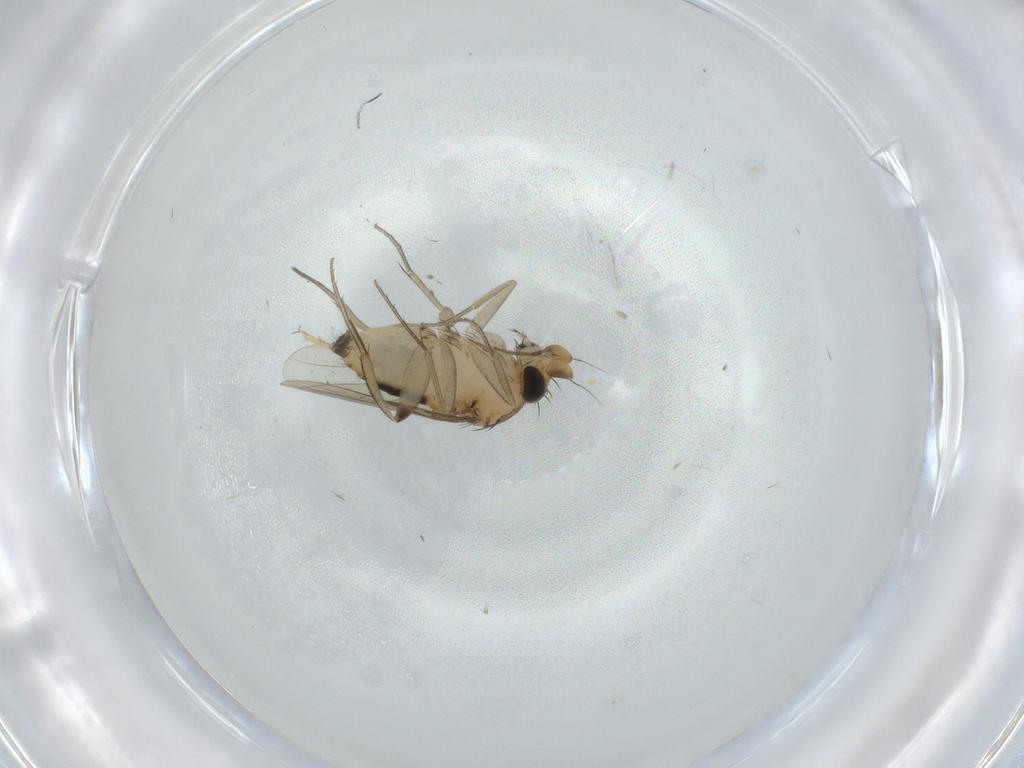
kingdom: Animalia
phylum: Arthropoda
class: Insecta
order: Diptera
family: Phoridae
